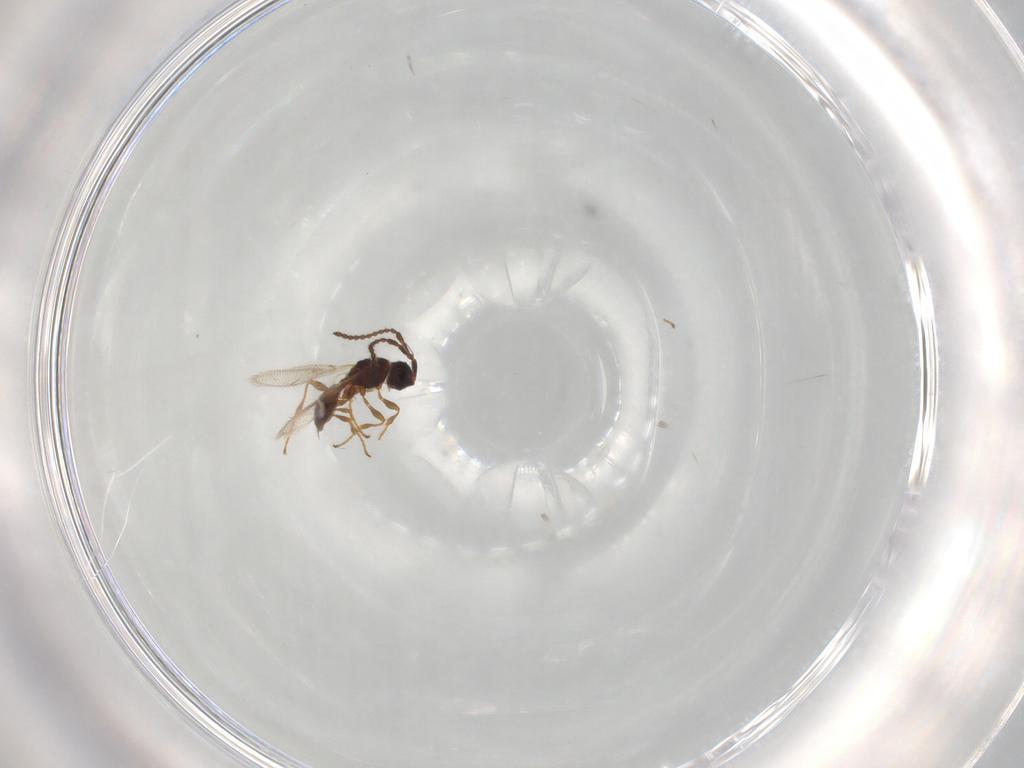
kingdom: Animalia
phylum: Arthropoda
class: Insecta
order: Hymenoptera
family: Diapriidae
